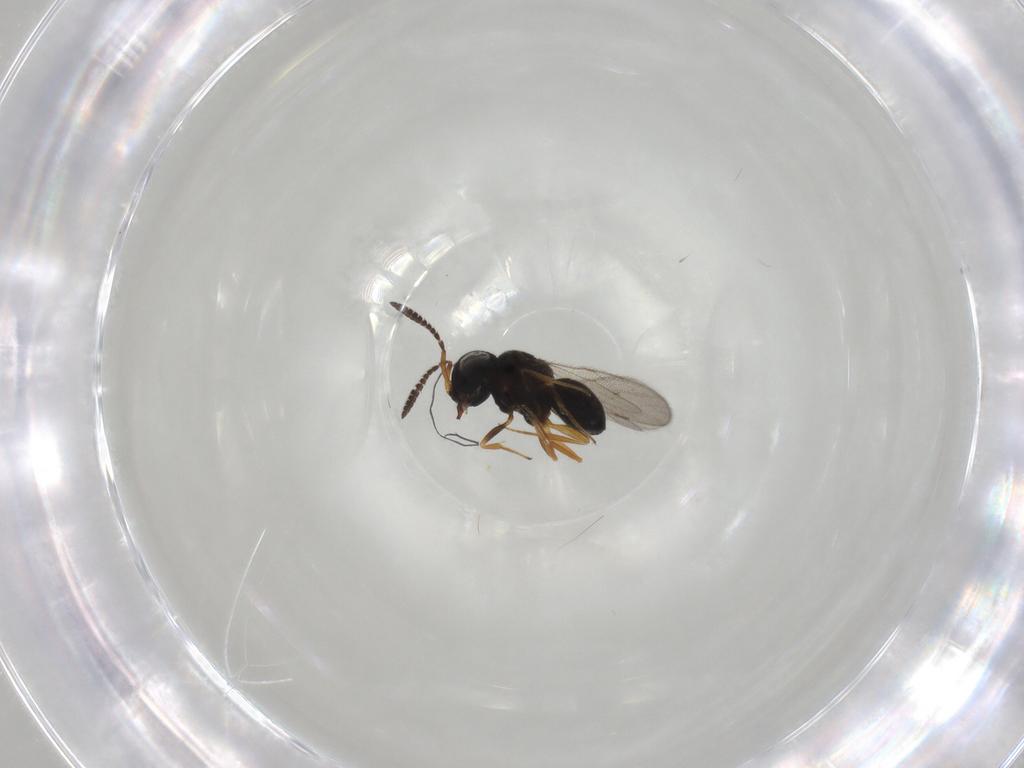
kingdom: Animalia
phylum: Arthropoda
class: Insecta
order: Hymenoptera
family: Scelionidae
